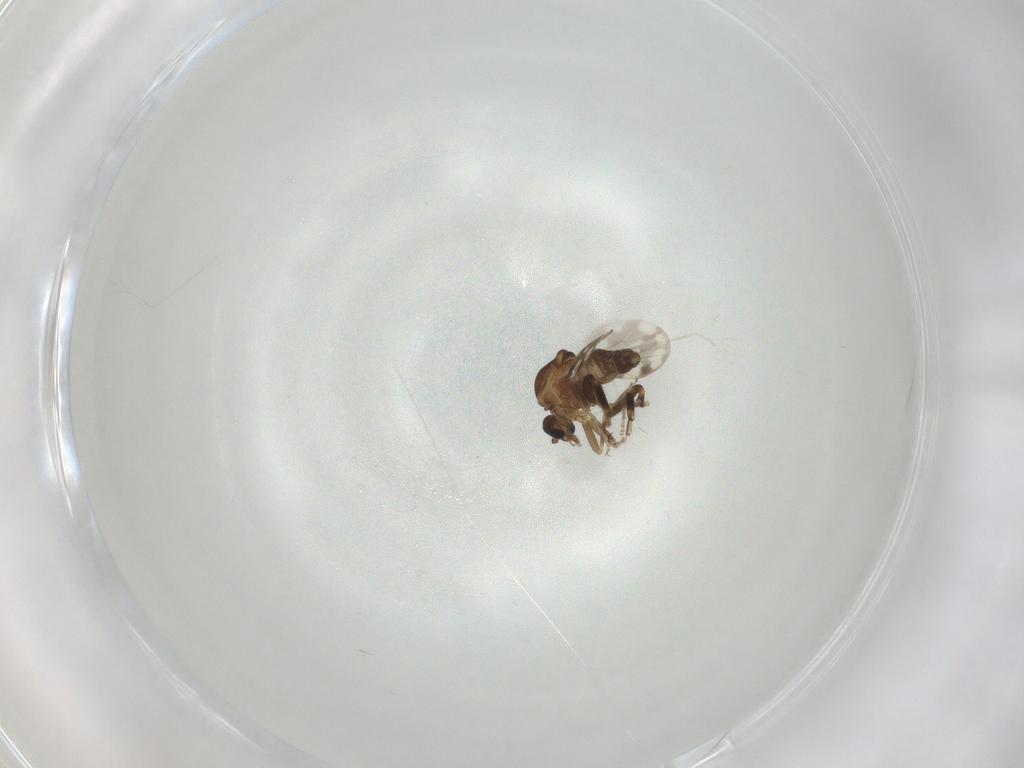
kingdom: Animalia
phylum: Arthropoda
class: Insecta
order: Diptera
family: Ceratopogonidae
